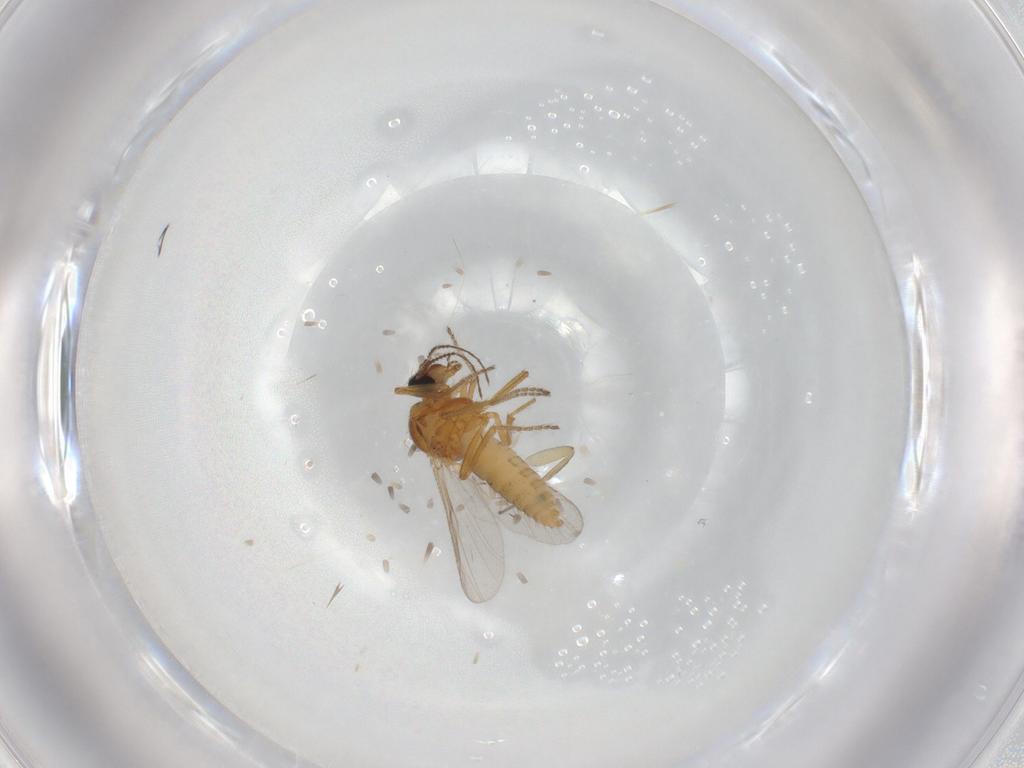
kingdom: Animalia
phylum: Arthropoda
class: Insecta
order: Diptera
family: Ceratopogonidae
